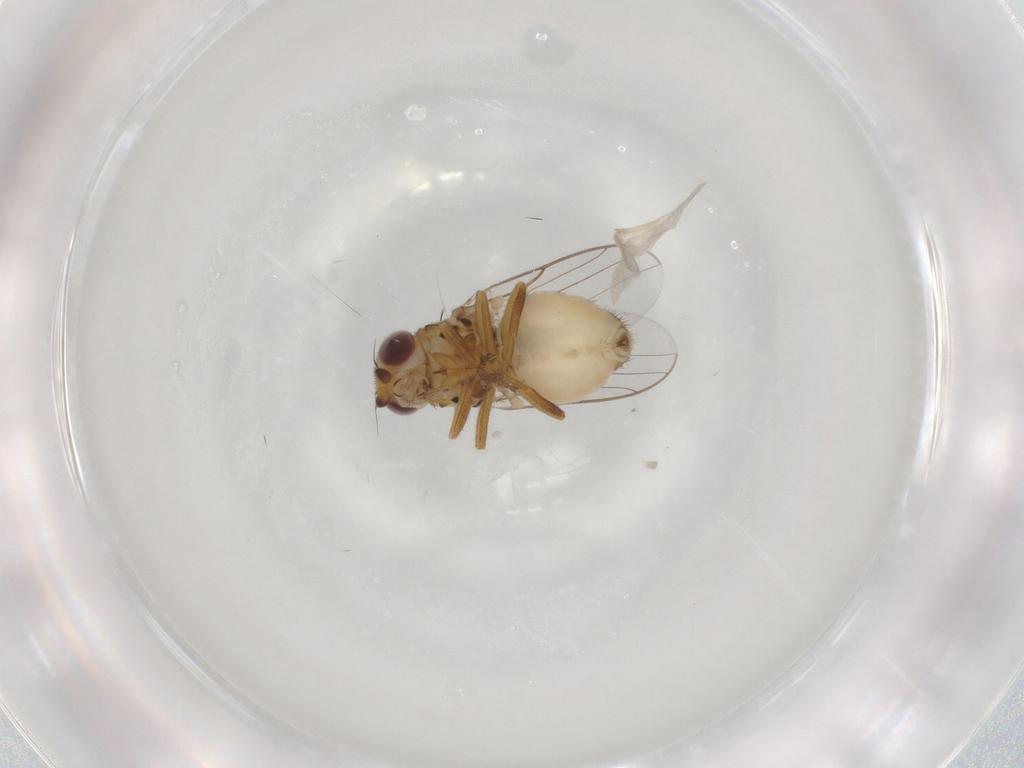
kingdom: Animalia
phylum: Arthropoda
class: Insecta
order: Diptera
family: Chloropidae
